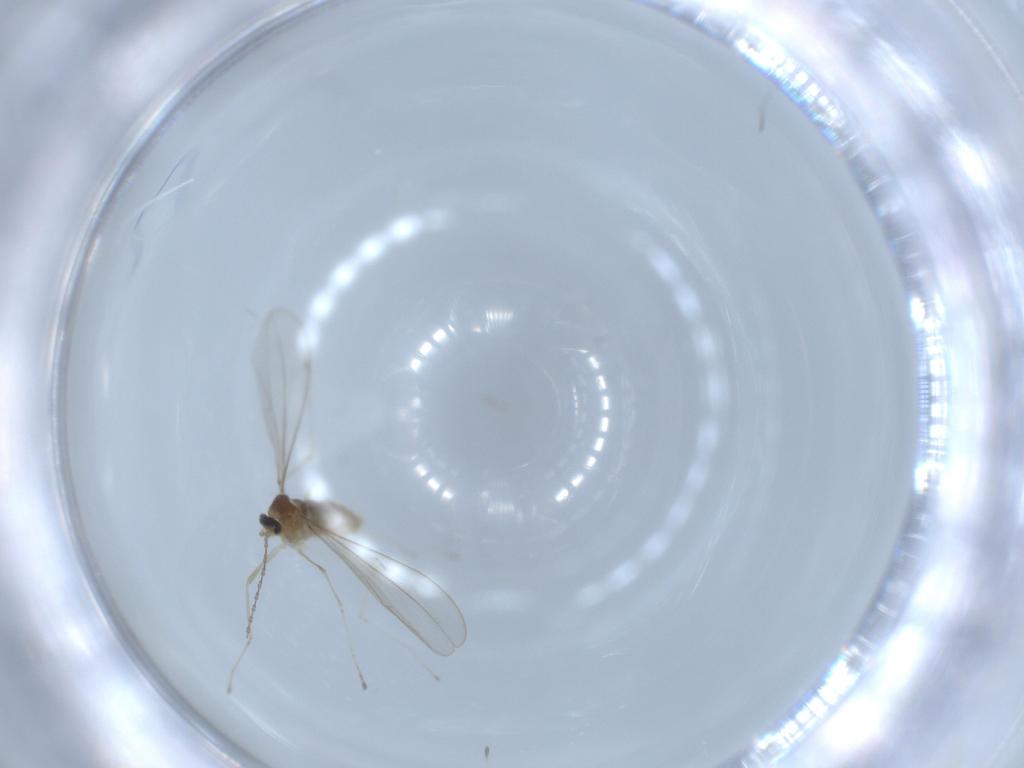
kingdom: Animalia
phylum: Arthropoda
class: Insecta
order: Diptera
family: Cecidomyiidae
